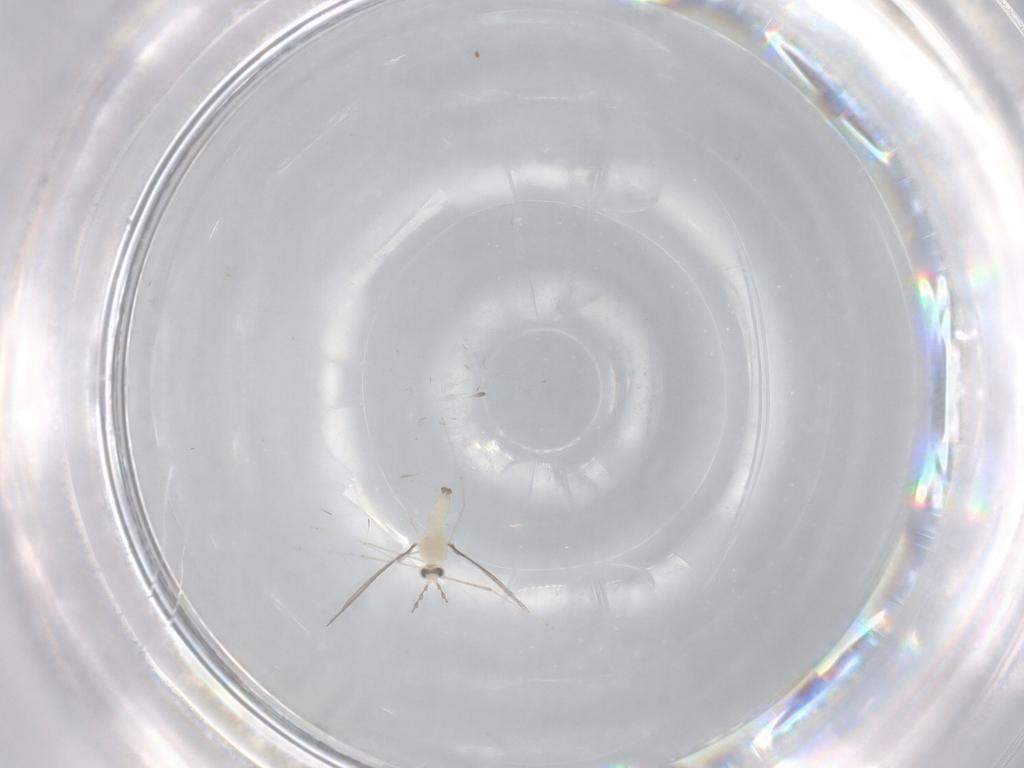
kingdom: Animalia
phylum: Arthropoda
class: Insecta
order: Diptera
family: Cecidomyiidae
